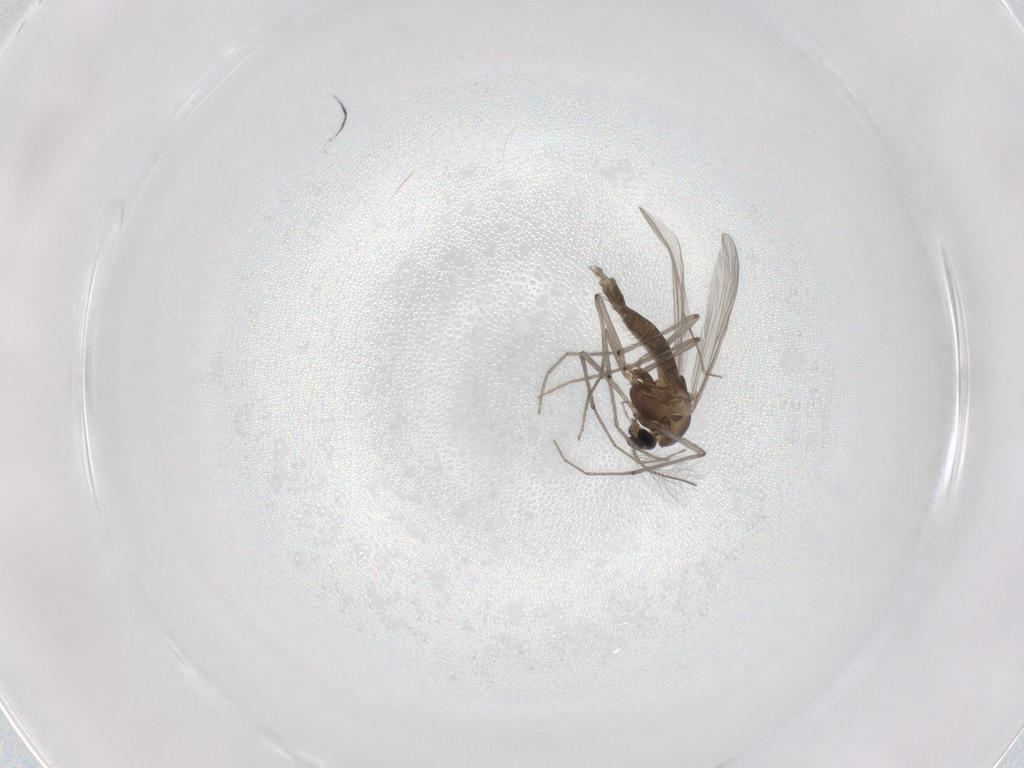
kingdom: Animalia
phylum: Arthropoda
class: Insecta
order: Diptera
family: Chironomidae
